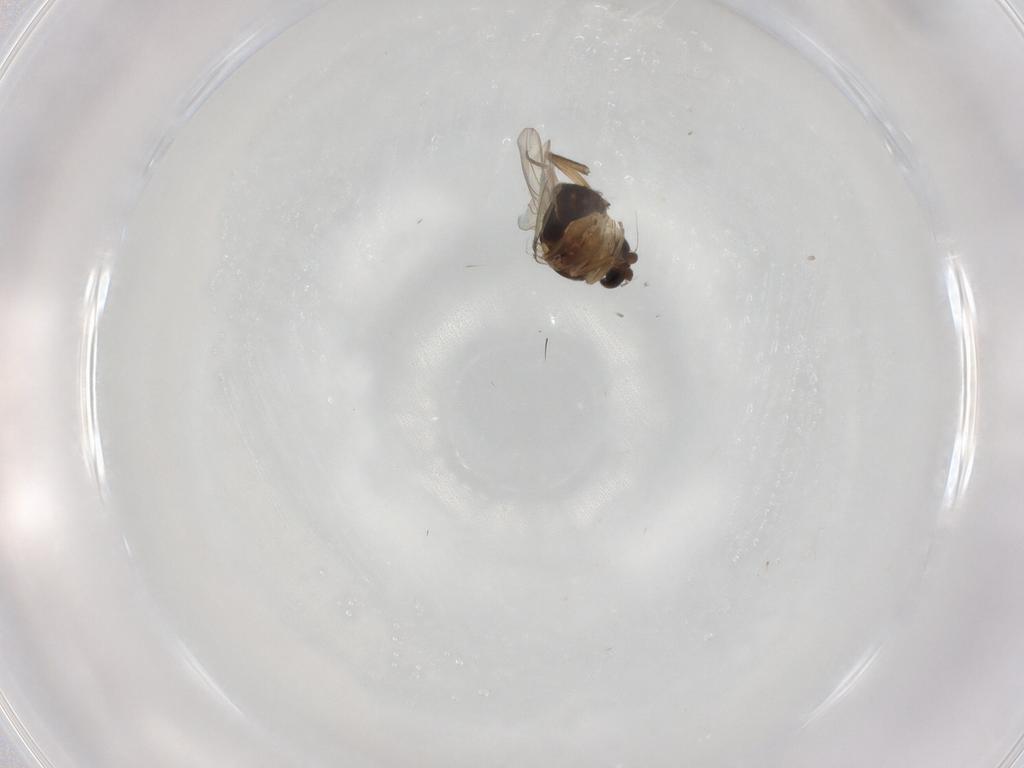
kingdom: Animalia
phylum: Arthropoda
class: Insecta
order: Diptera
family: Phoridae
